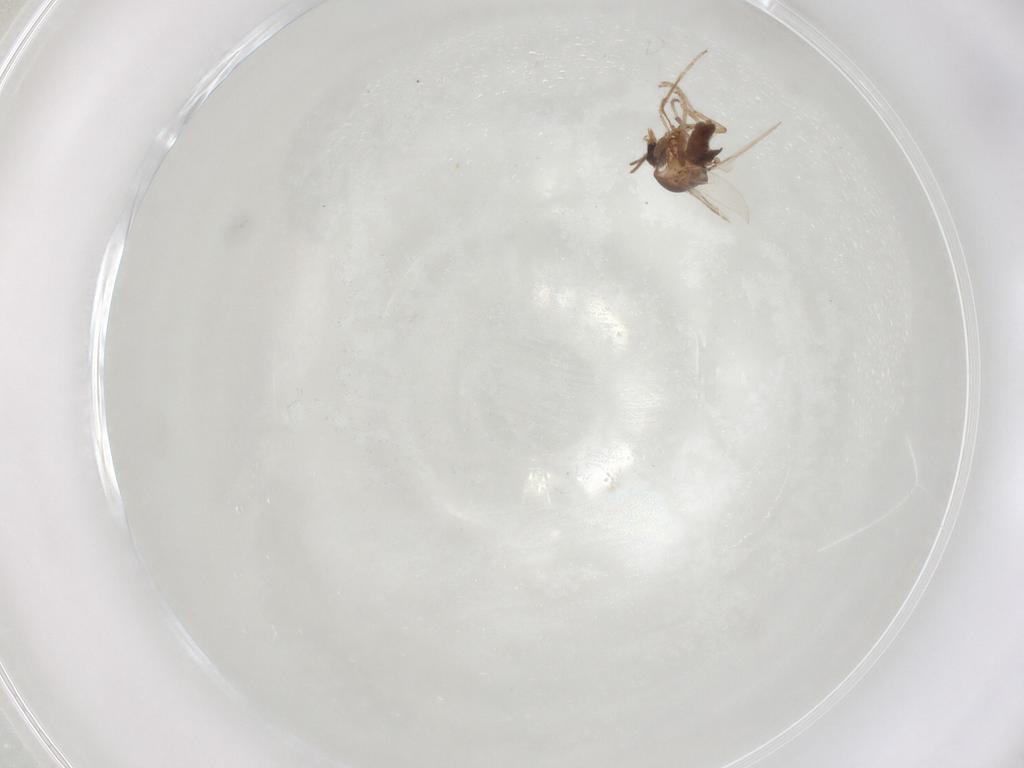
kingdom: Animalia
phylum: Arthropoda
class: Insecta
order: Diptera
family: Ceratopogonidae
